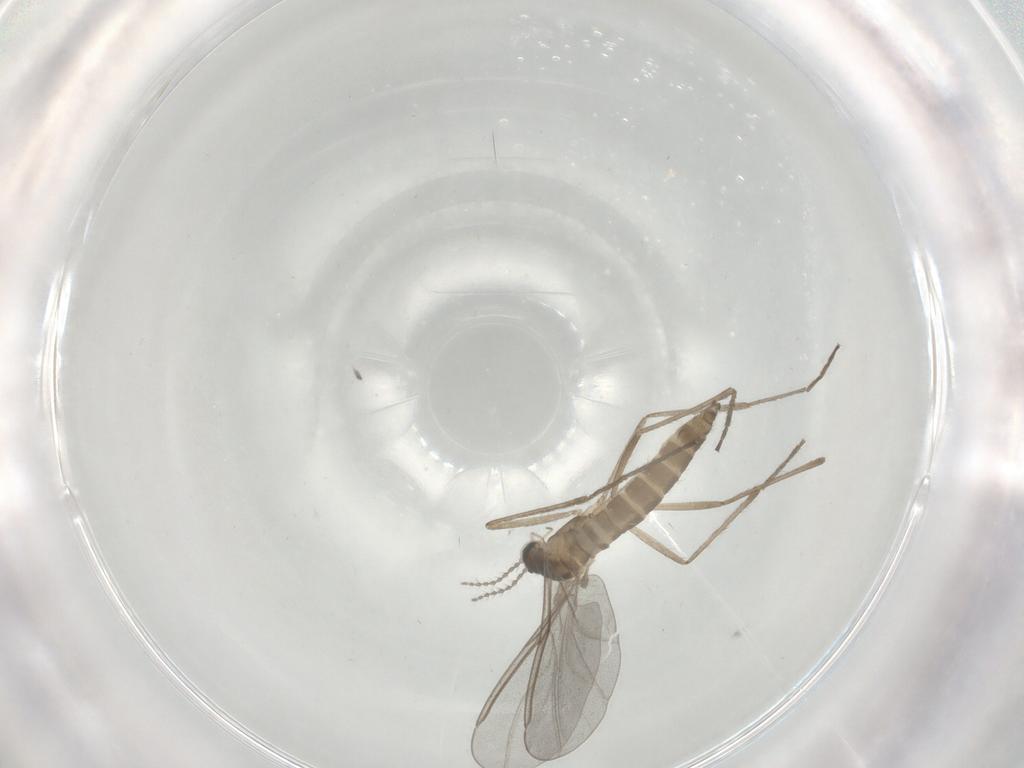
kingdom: Animalia
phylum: Arthropoda
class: Insecta
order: Diptera
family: Cecidomyiidae
